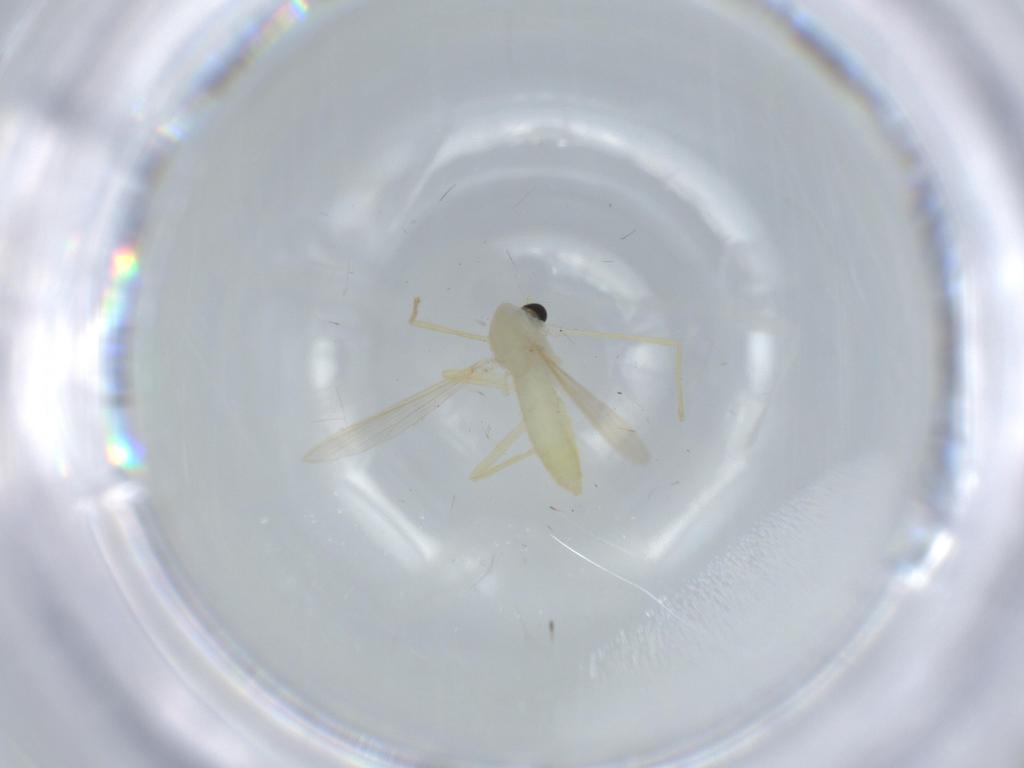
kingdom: Animalia
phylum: Arthropoda
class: Insecta
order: Diptera
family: Chironomidae
